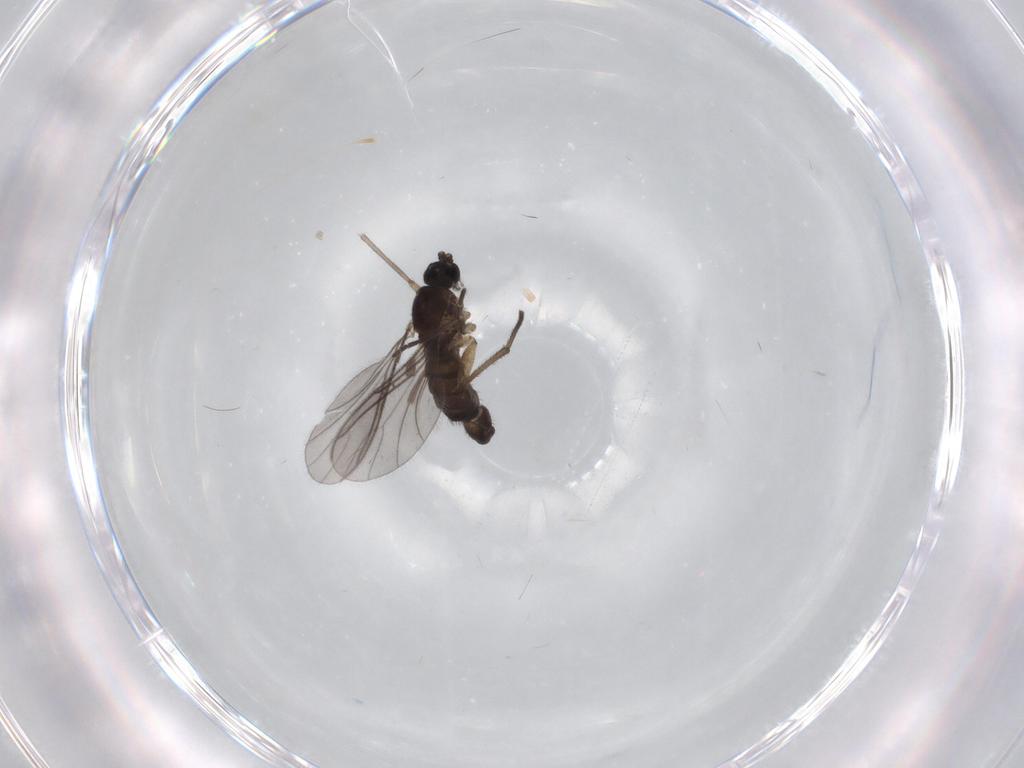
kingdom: Animalia
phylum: Arthropoda
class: Insecta
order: Diptera
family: Sciaridae
